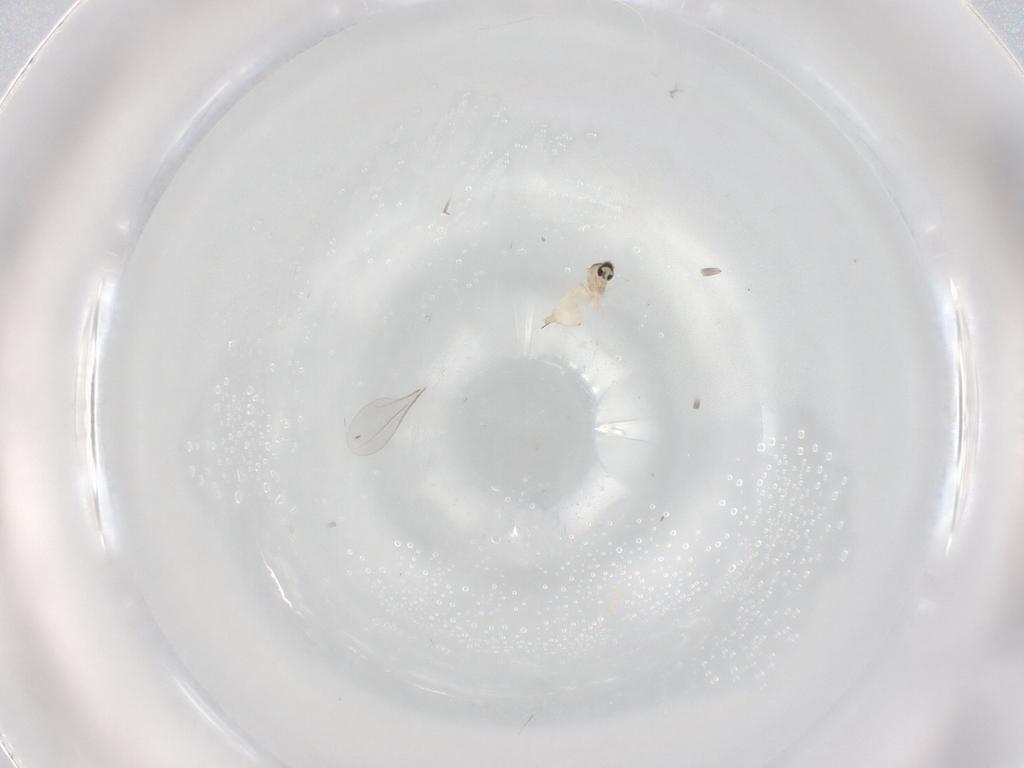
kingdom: Animalia
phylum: Arthropoda
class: Insecta
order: Diptera
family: Cecidomyiidae
